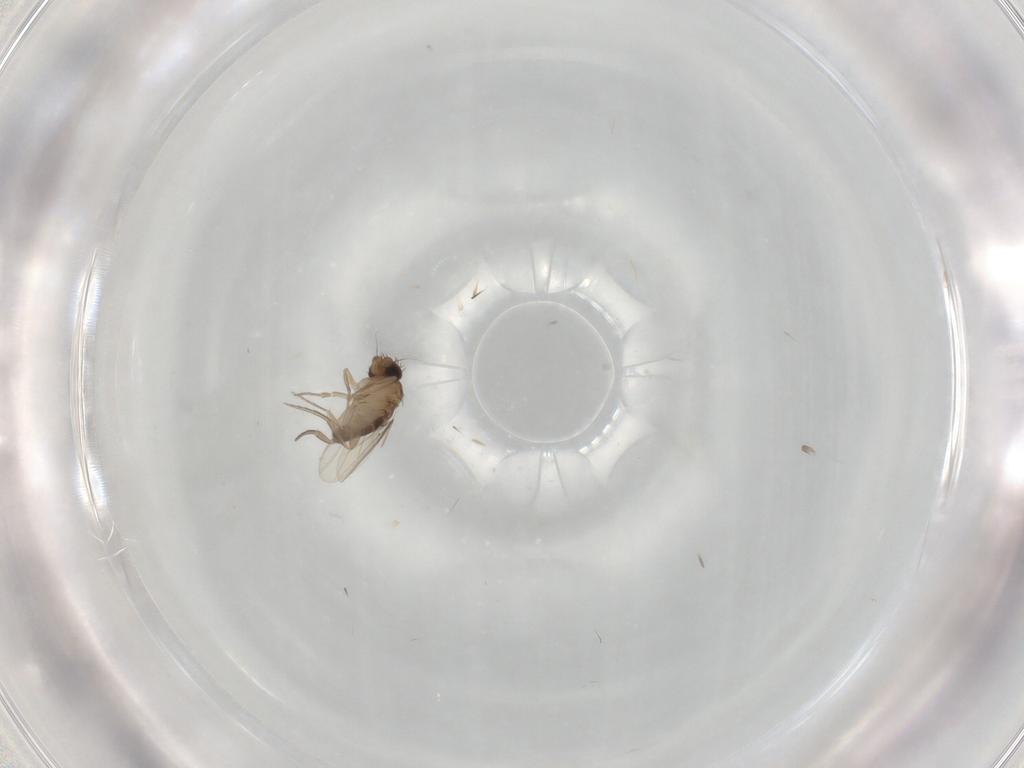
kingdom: Animalia
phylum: Arthropoda
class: Insecta
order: Diptera
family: Phoridae
